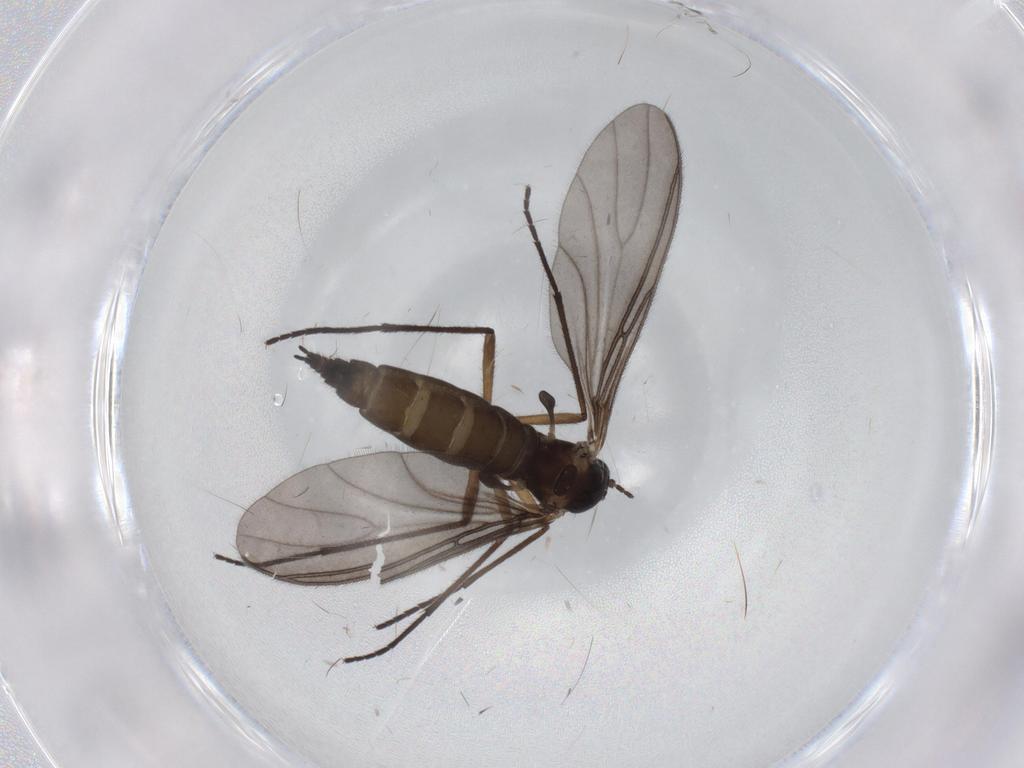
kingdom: Animalia
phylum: Arthropoda
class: Insecta
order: Diptera
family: Sciaridae
